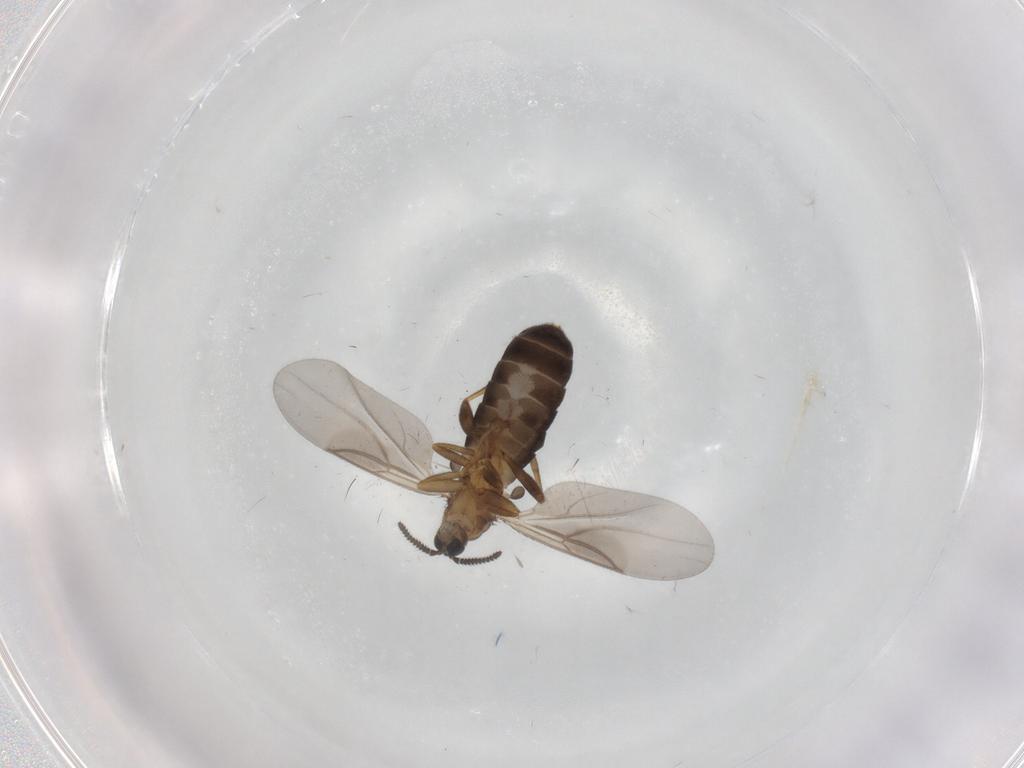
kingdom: Animalia
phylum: Arthropoda
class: Insecta
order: Diptera
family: Scatopsidae
